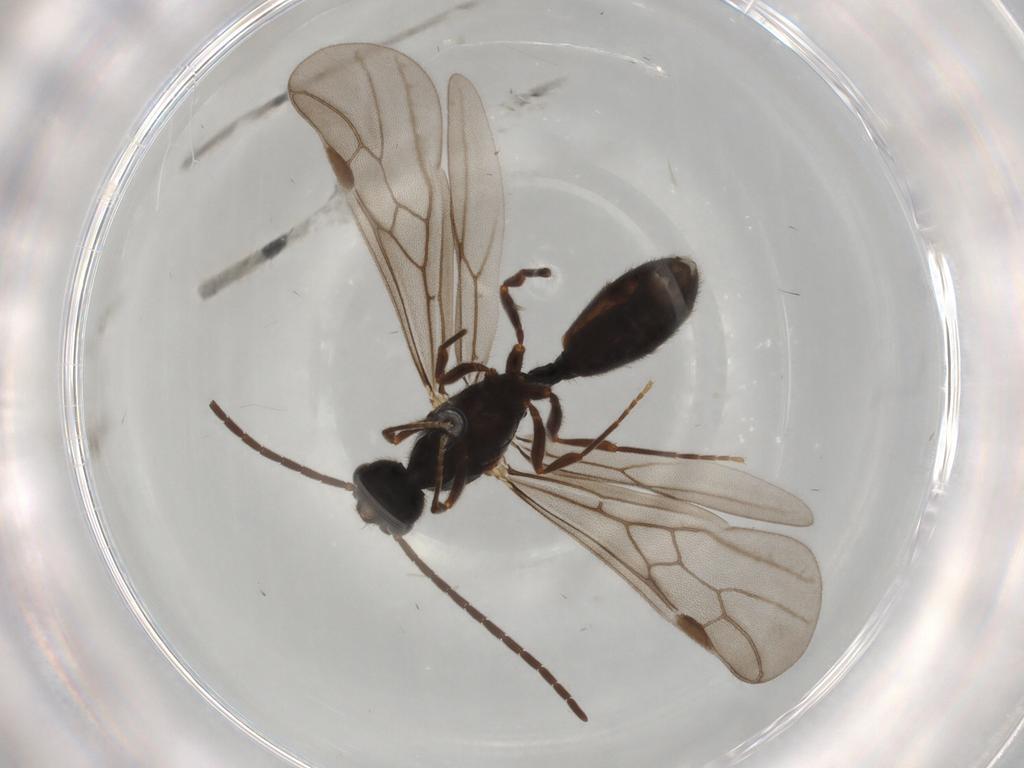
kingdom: Animalia
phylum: Arthropoda
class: Insecta
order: Hymenoptera
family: Formicidae
